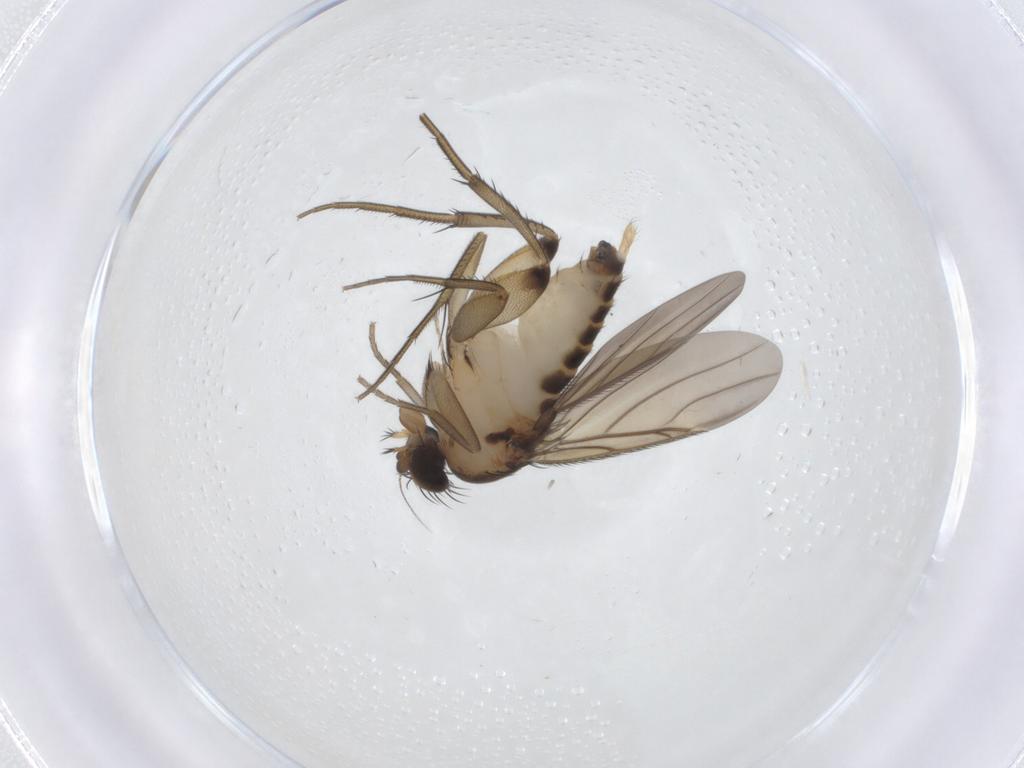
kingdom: Animalia
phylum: Arthropoda
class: Insecta
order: Diptera
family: Phoridae
